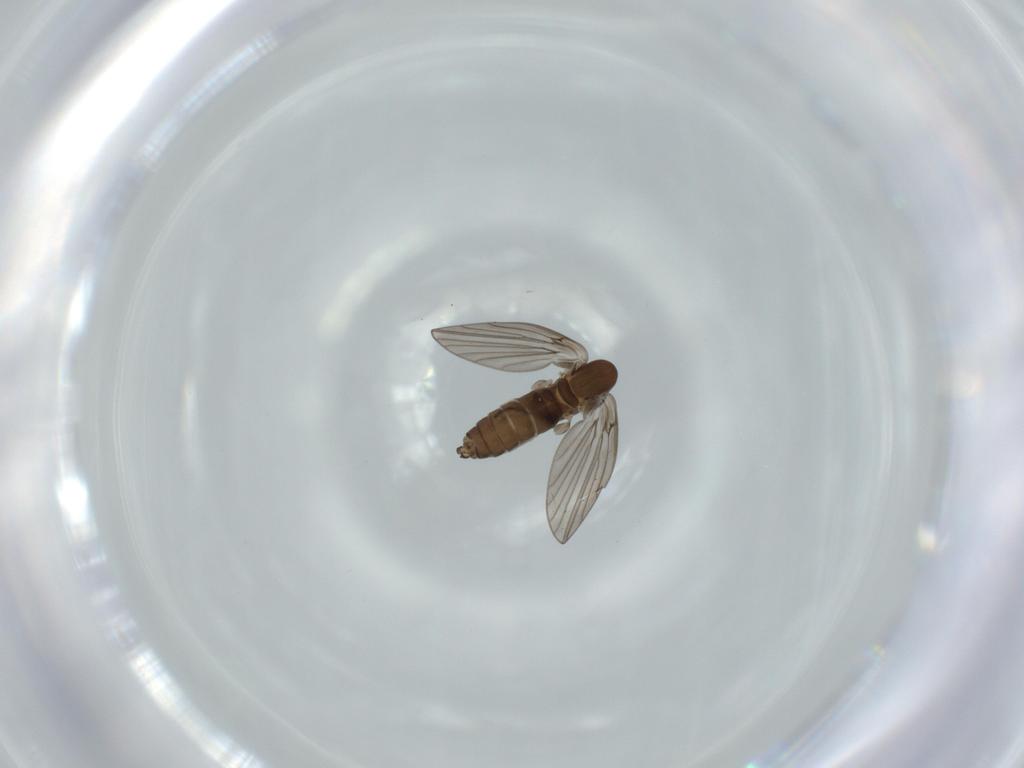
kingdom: Animalia
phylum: Arthropoda
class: Insecta
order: Diptera
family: Psychodidae
